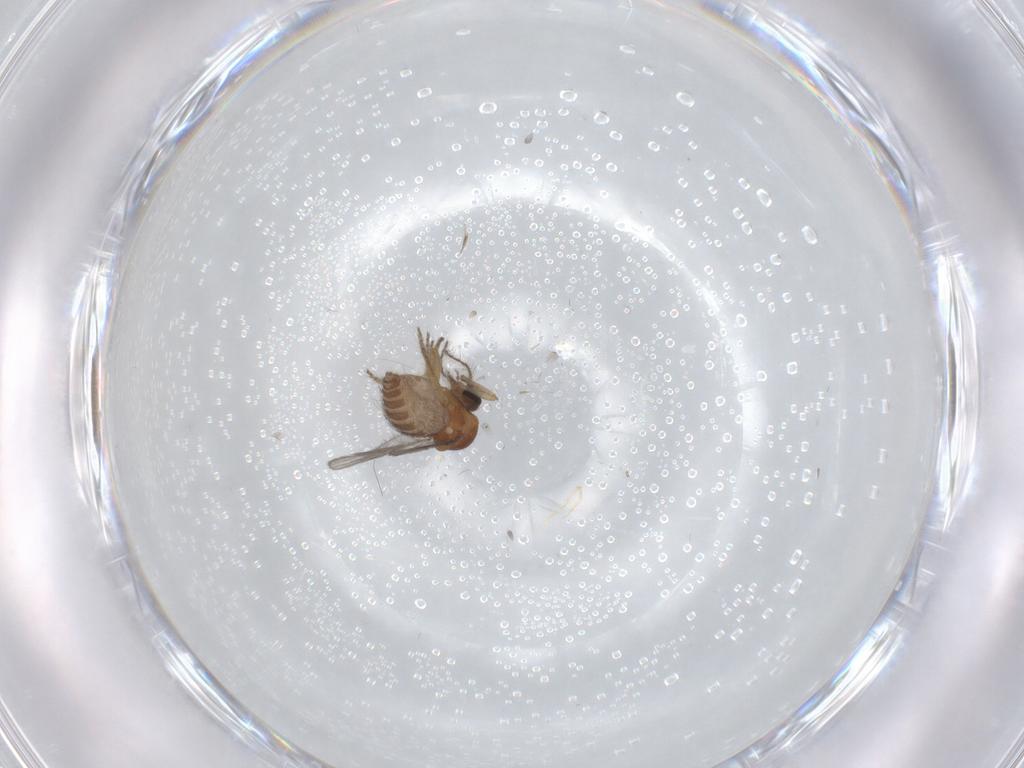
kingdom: Animalia
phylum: Arthropoda
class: Insecta
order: Diptera
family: Ceratopogonidae
